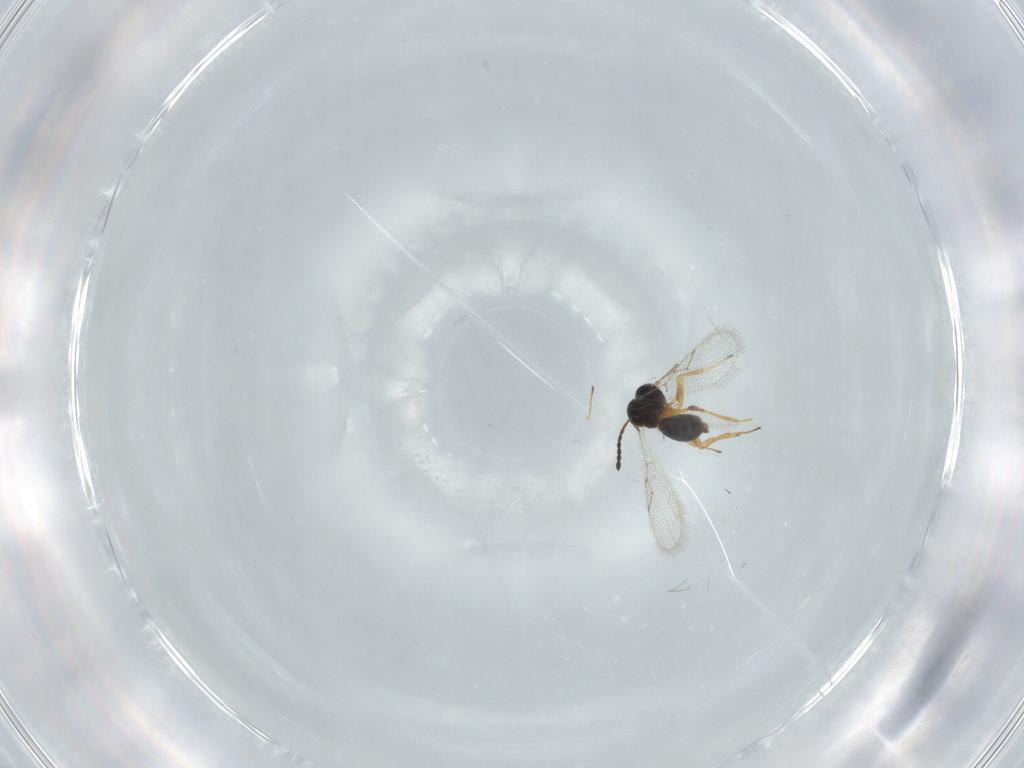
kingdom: Animalia
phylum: Arthropoda
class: Insecta
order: Hymenoptera
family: Figitidae
